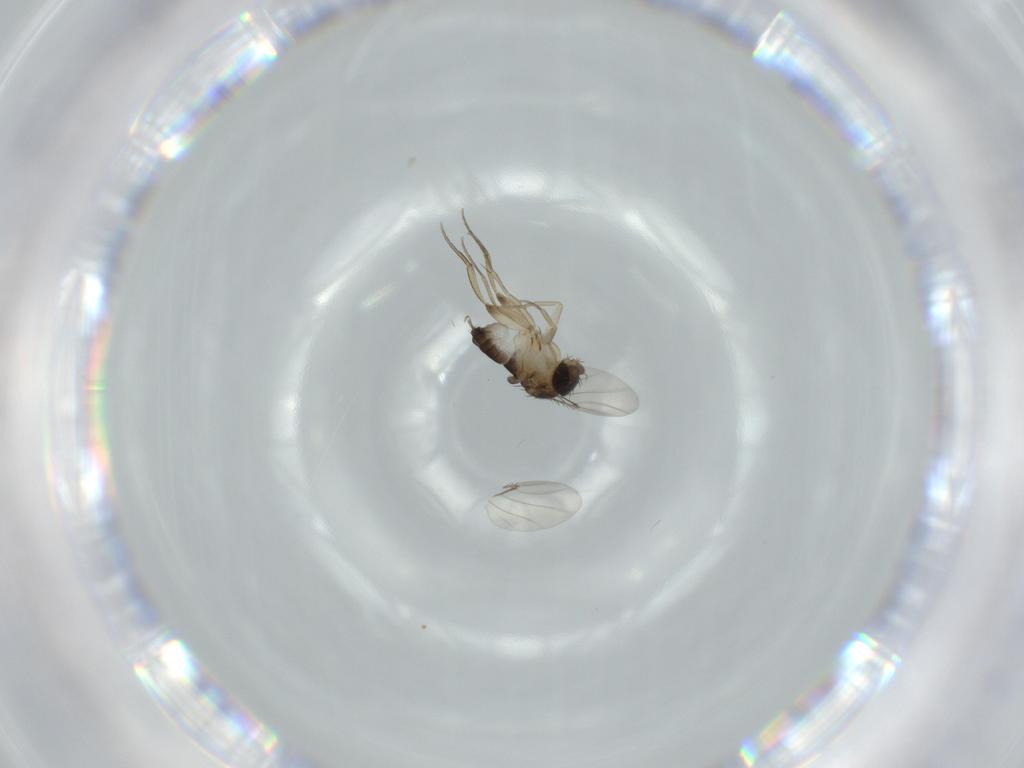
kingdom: Animalia
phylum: Arthropoda
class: Insecta
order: Diptera
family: Phoridae
